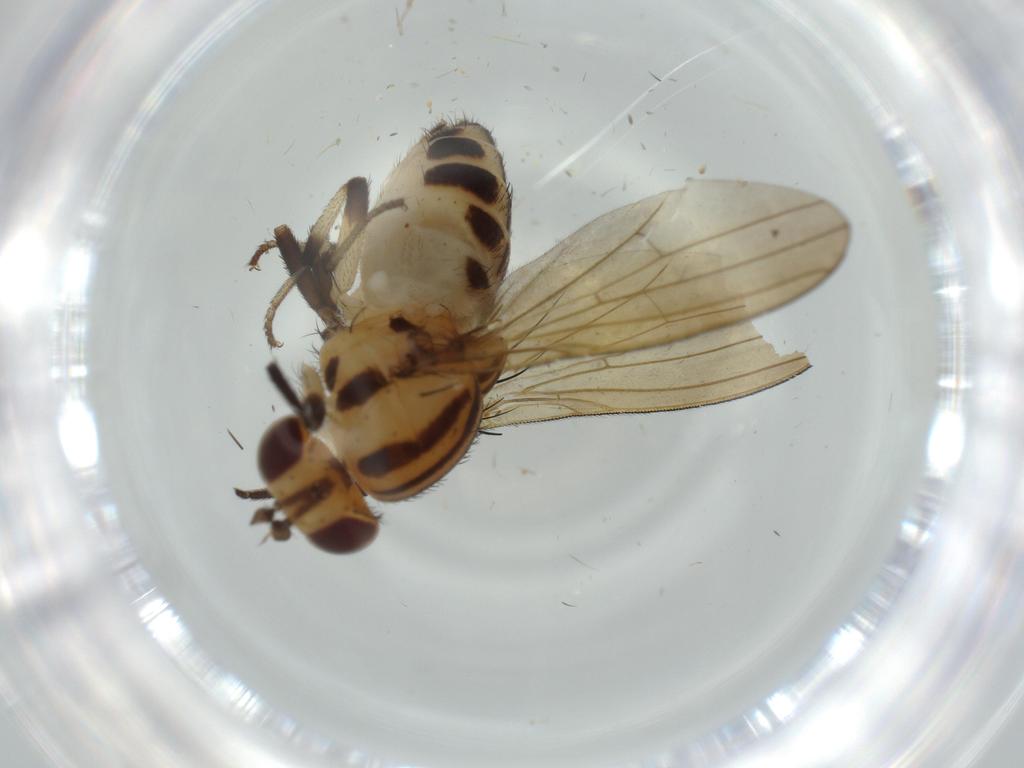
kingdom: Animalia
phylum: Arthropoda
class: Insecta
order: Diptera
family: Lauxaniidae
